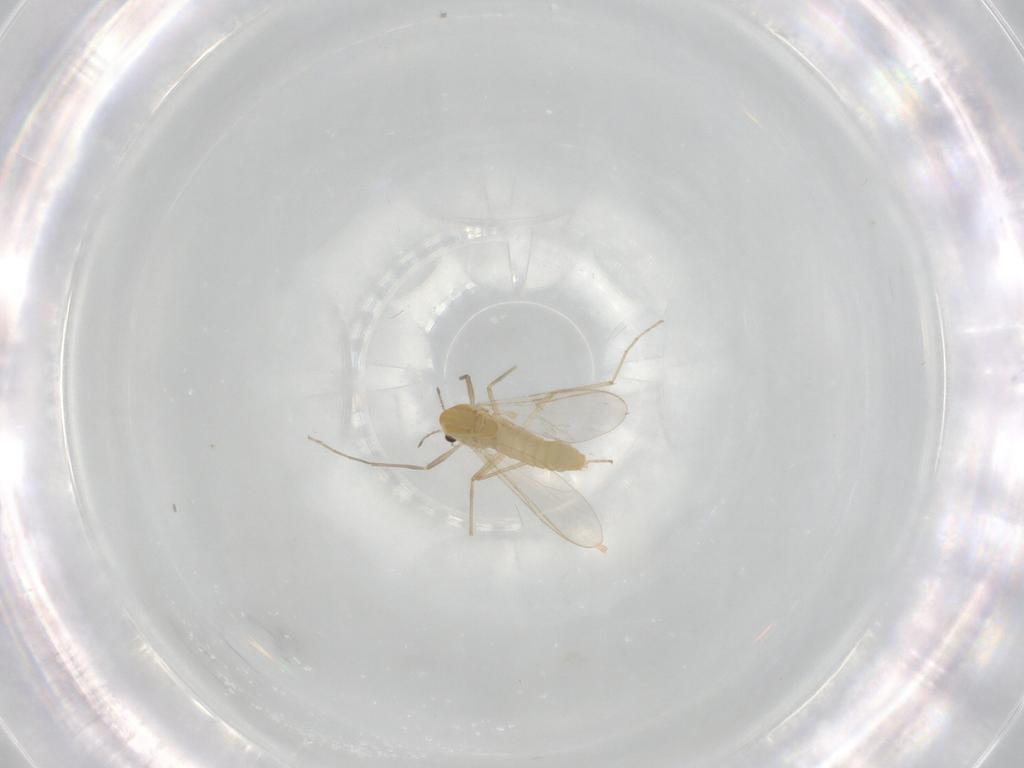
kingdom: Animalia
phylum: Arthropoda
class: Insecta
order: Diptera
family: Chironomidae
